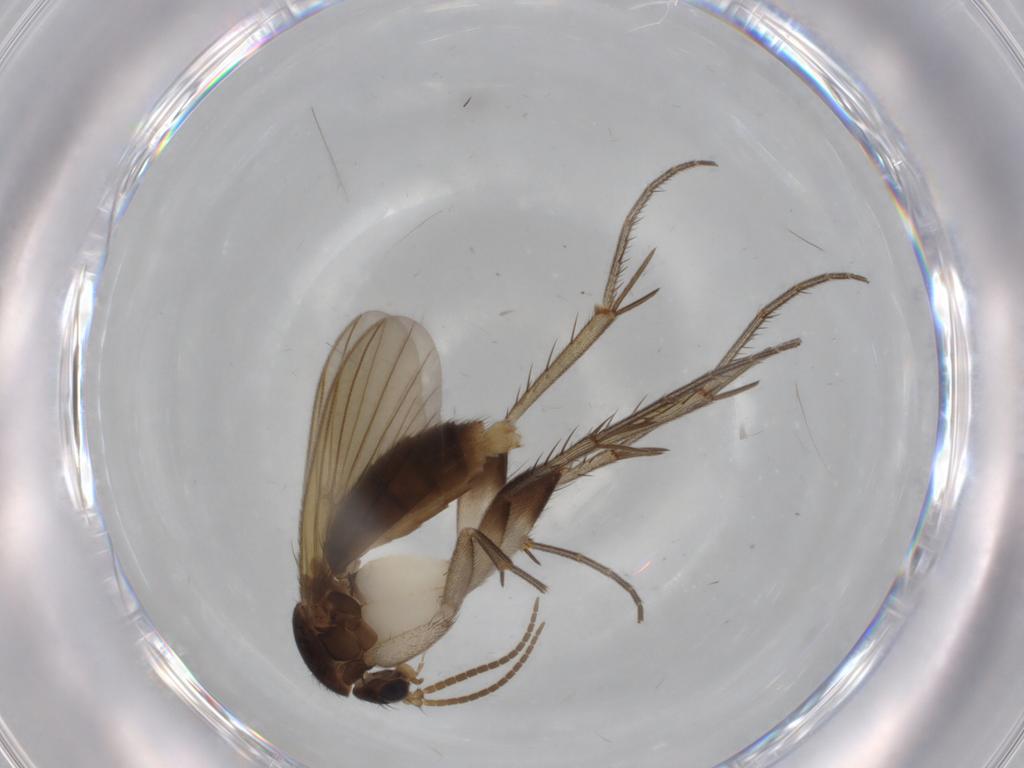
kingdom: Animalia
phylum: Arthropoda
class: Insecta
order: Diptera
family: Mycetophilidae
